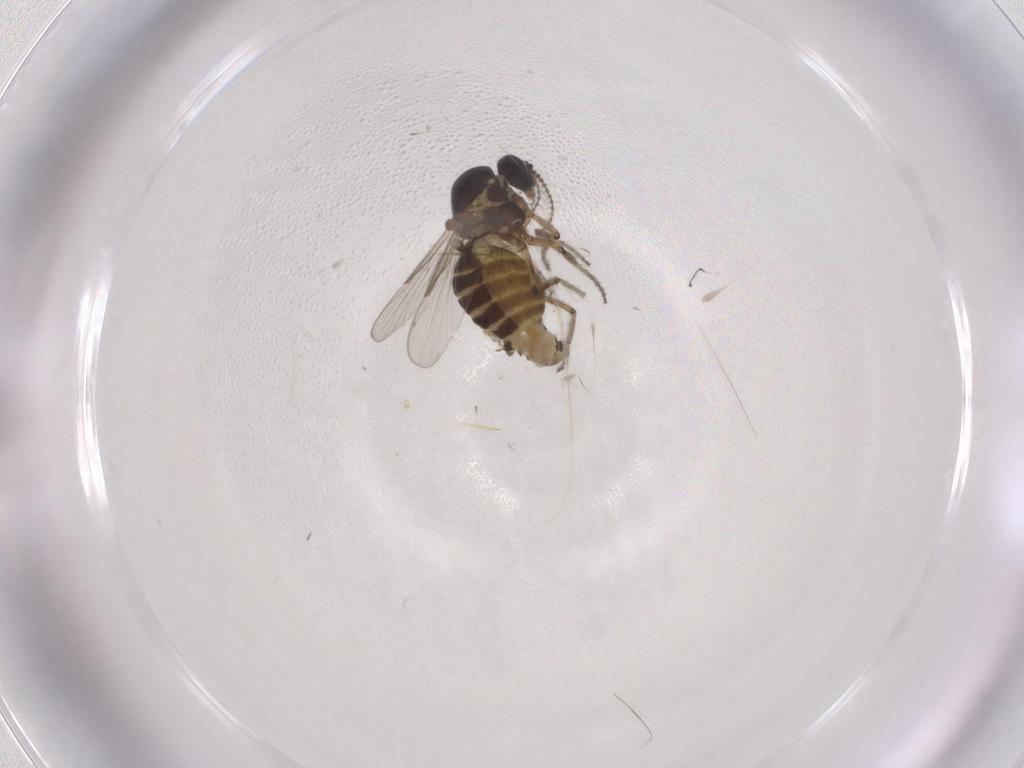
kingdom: Animalia
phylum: Arthropoda
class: Insecta
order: Diptera
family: Ceratopogonidae
